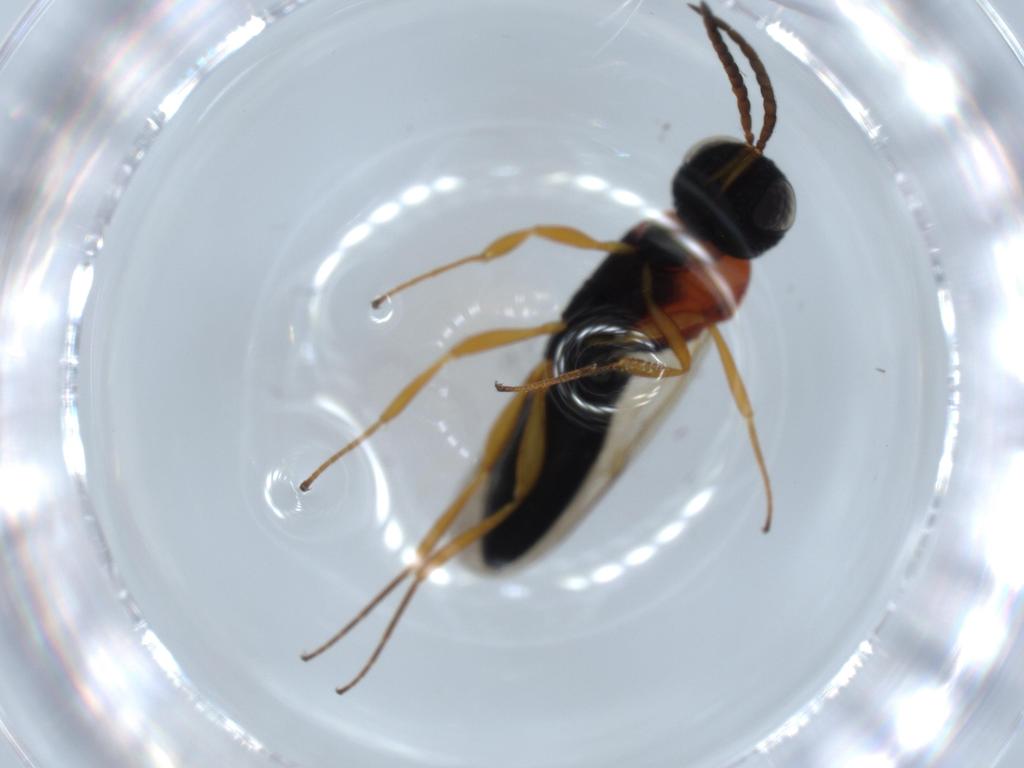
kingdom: Animalia
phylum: Arthropoda
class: Insecta
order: Hymenoptera
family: Scelionidae
